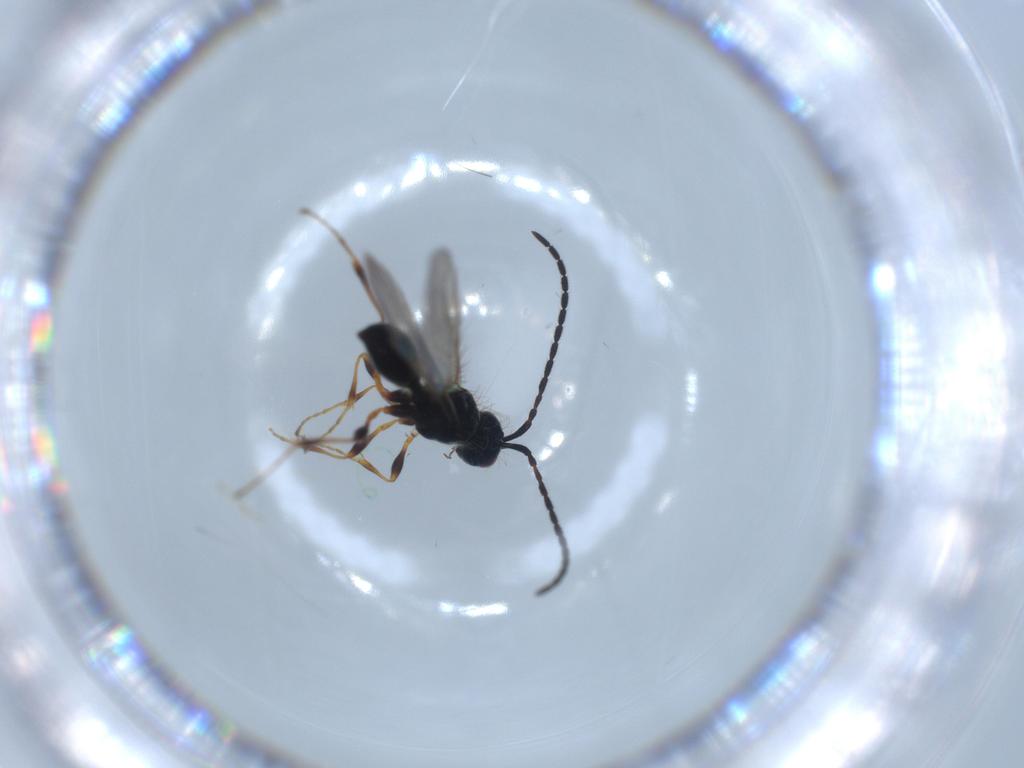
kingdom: Animalia
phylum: Arthropoda
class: Insecta
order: Hymenoptera
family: Diapriidae
